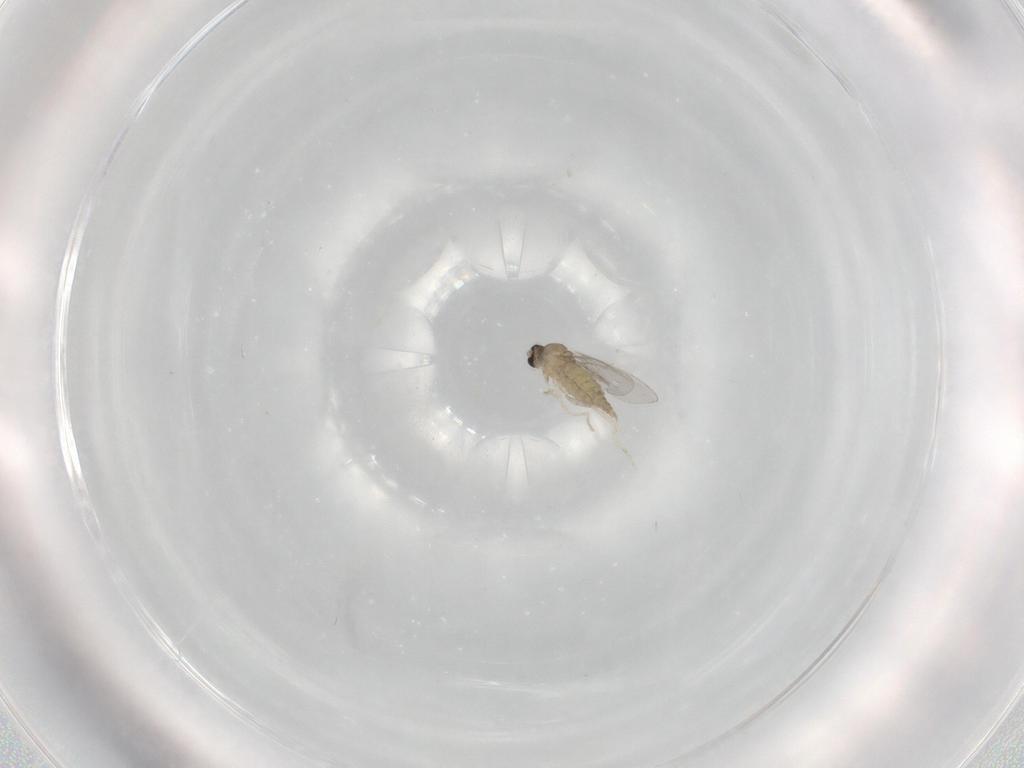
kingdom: Animalia
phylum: Arthropoda
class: Insecta
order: Diptera
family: Cecidomyiidae
